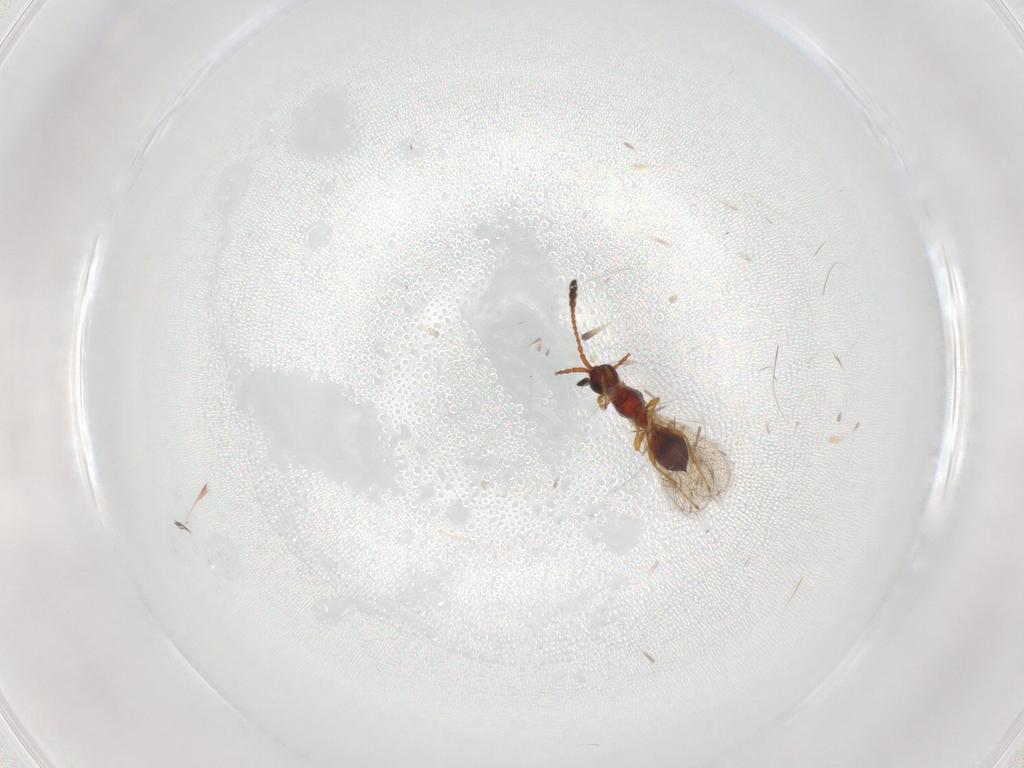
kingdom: Animalia
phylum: Arthropoda
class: Insecta
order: Hymenoptera
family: Diapriidae
